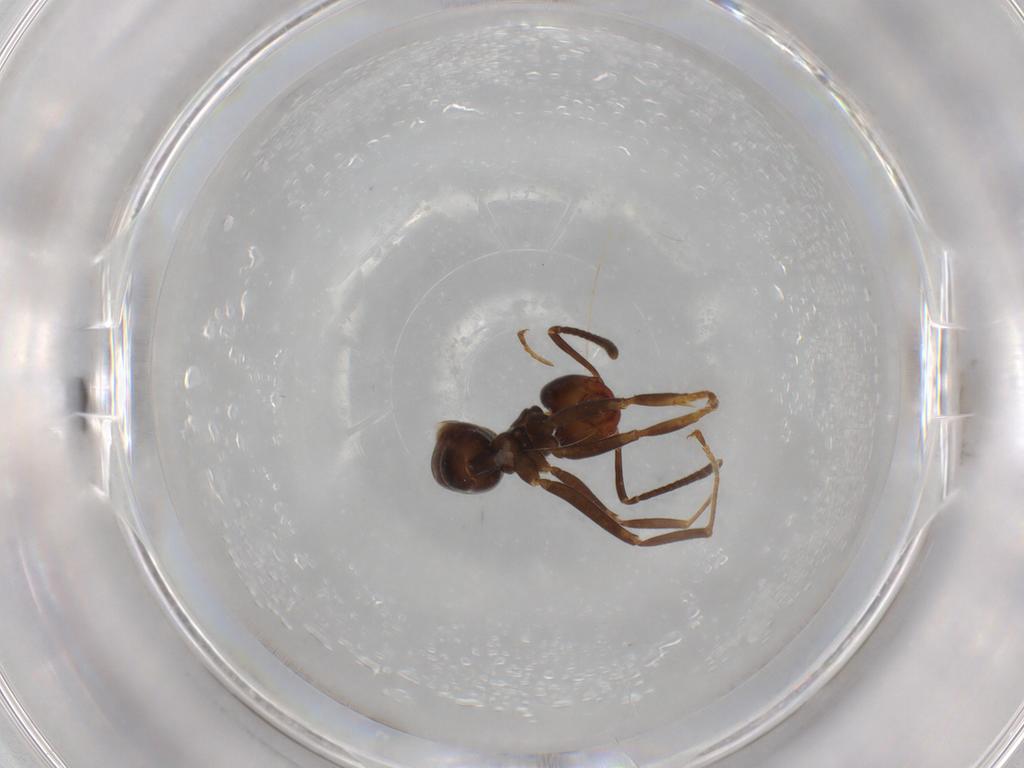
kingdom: Animalia
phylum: Arthropoda
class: Insecta
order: Hymenoptera
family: Formicidae
